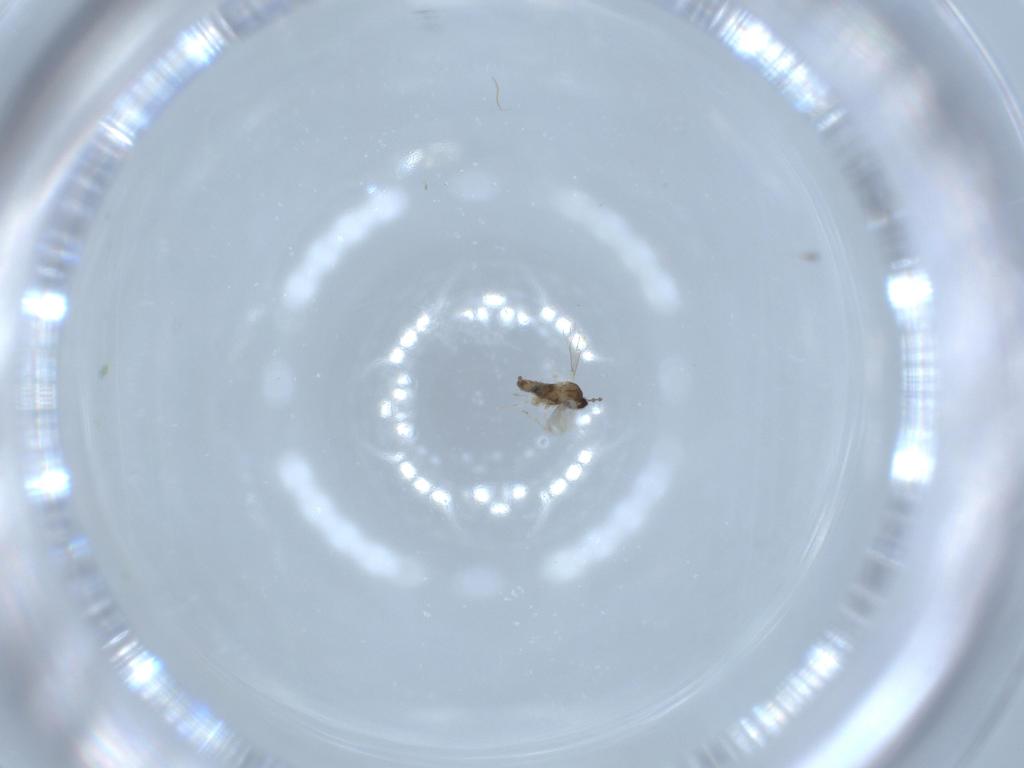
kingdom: Animalia
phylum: Arthropoda
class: Insecta
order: Diptera
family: Cecidomyiidae
